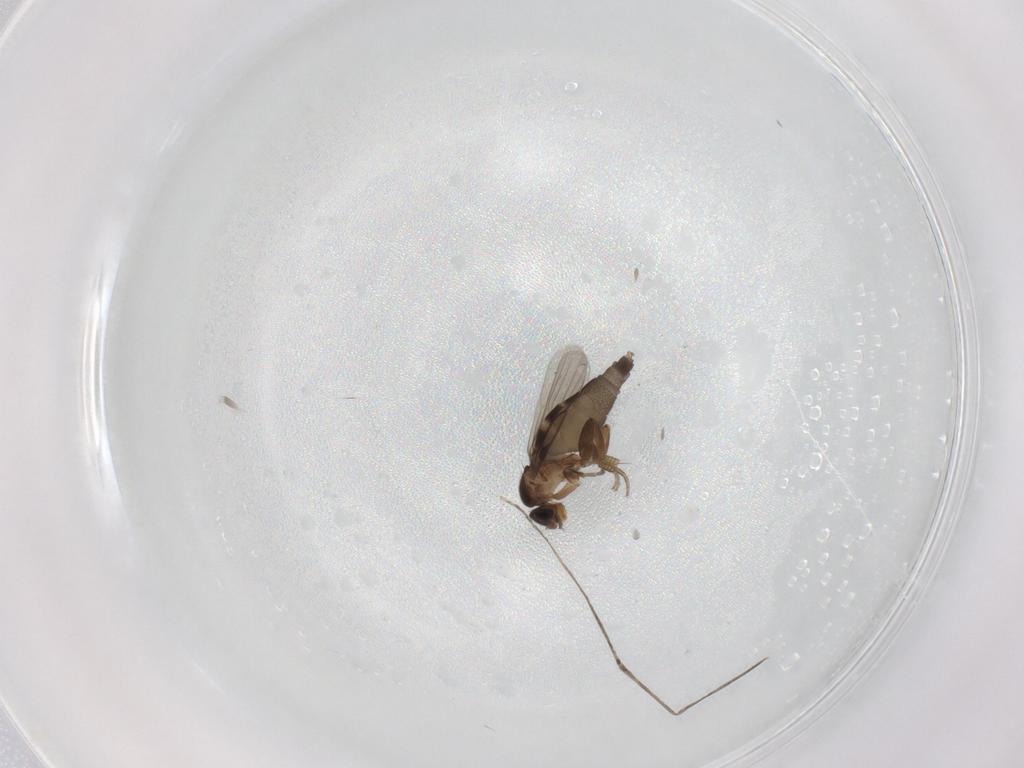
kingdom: Animalia
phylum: Arthropoda
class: Insecta
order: Diptera
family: Phoridae
